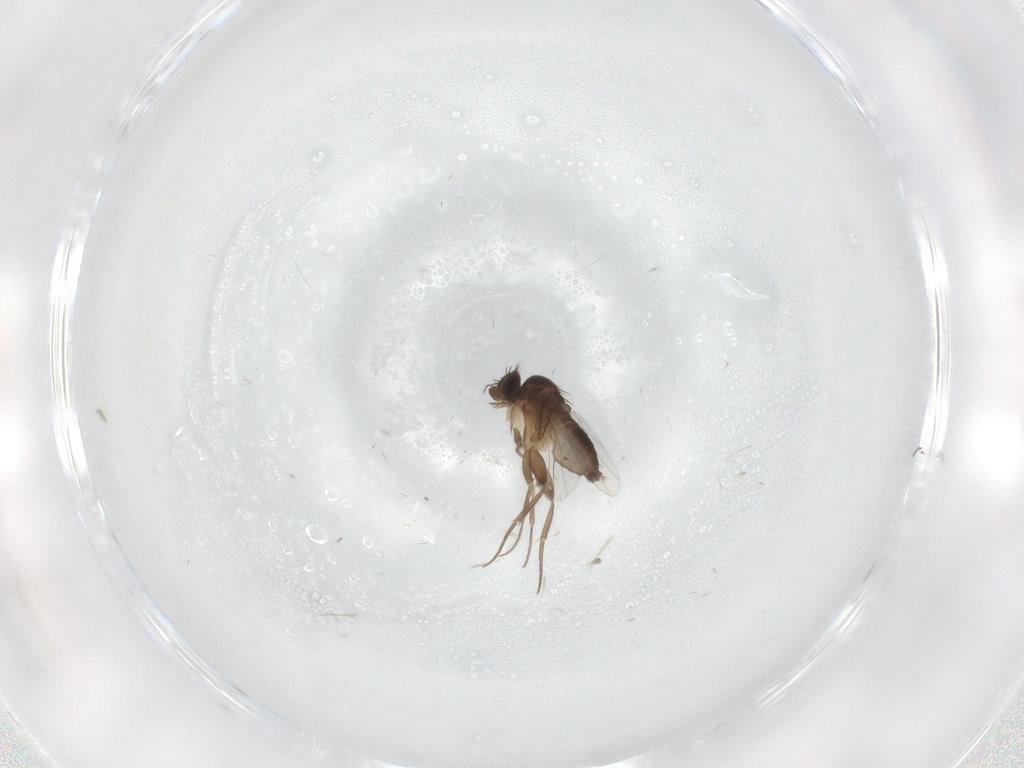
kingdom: Animalia
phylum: Arthropoda
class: Insecta
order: Diptera
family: Phoridae
